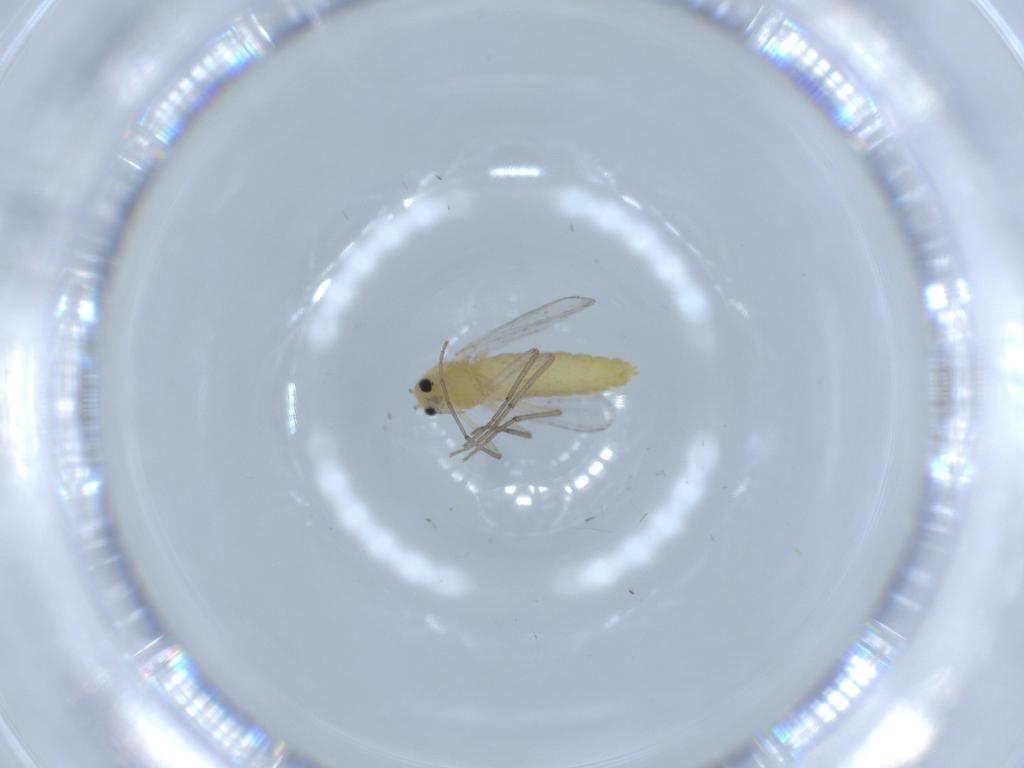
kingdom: Animalia
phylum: Arthropoda
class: Insecta
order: Diptera
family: Chironomidae
